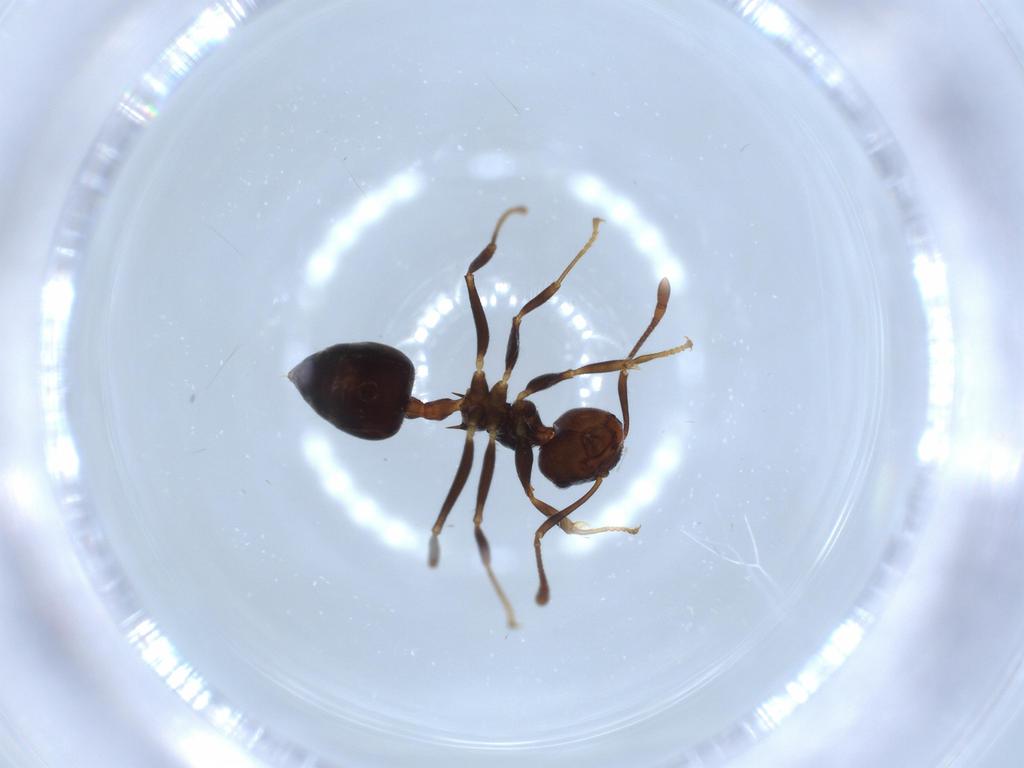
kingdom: Animalia
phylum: Arthropoda
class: Insecta
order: Hymenoptera
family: Formicidae
